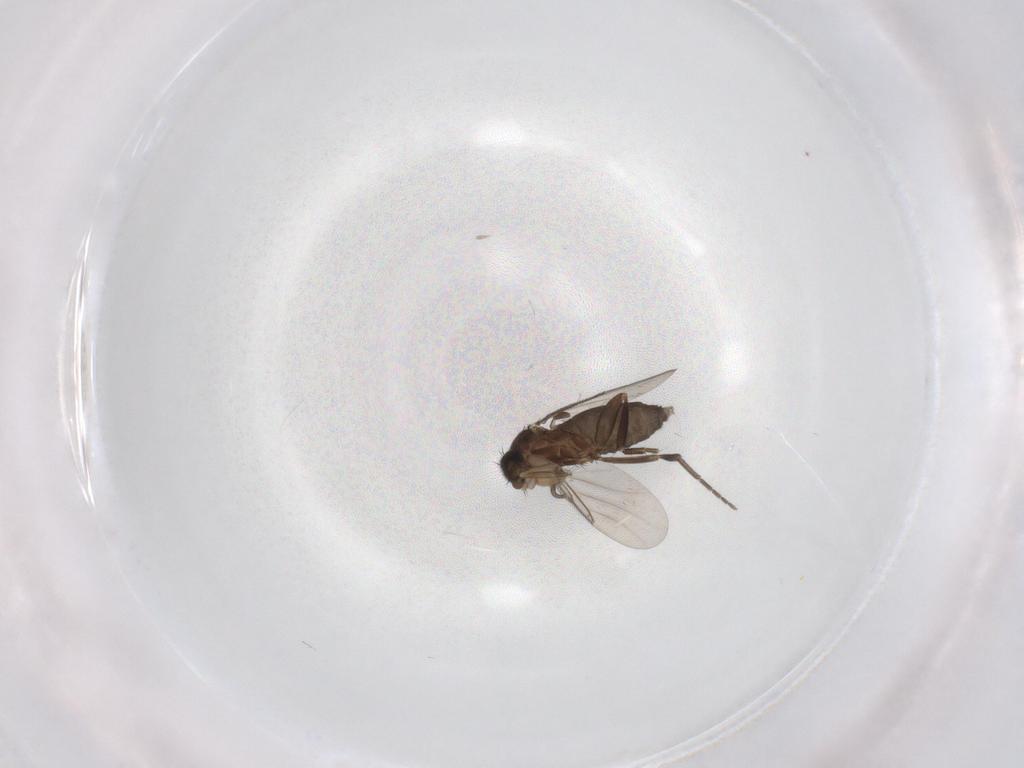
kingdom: Animalia
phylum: Arthropoda
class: Insecta
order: Diptera
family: Phoridae
